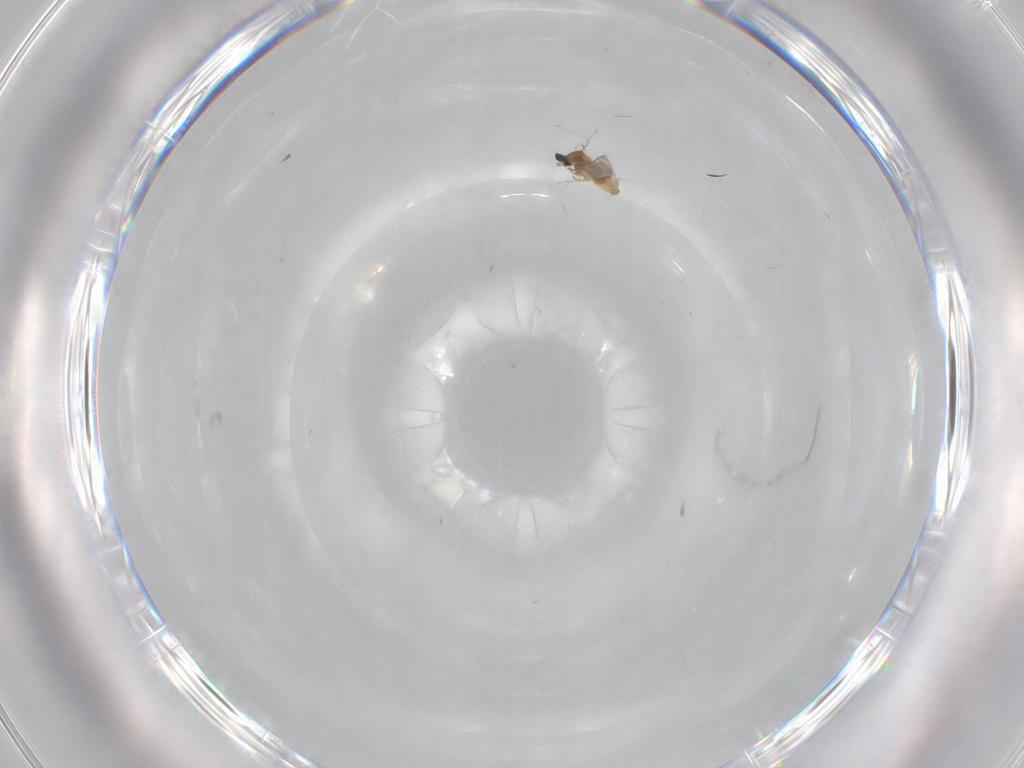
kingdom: Animalia
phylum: Arthropoda
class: Insecta
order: Diptera
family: Cecidomyiidae
